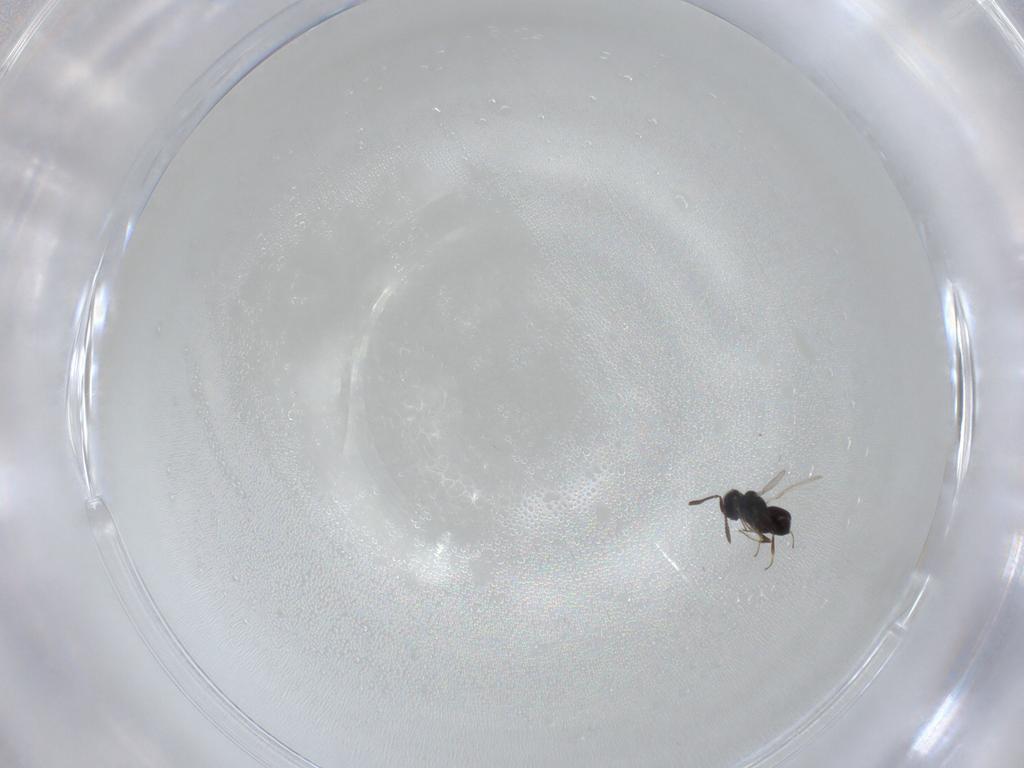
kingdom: Animalia
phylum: Arthropoda
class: Insecta
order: Hymenoptera
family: Scelionidae
